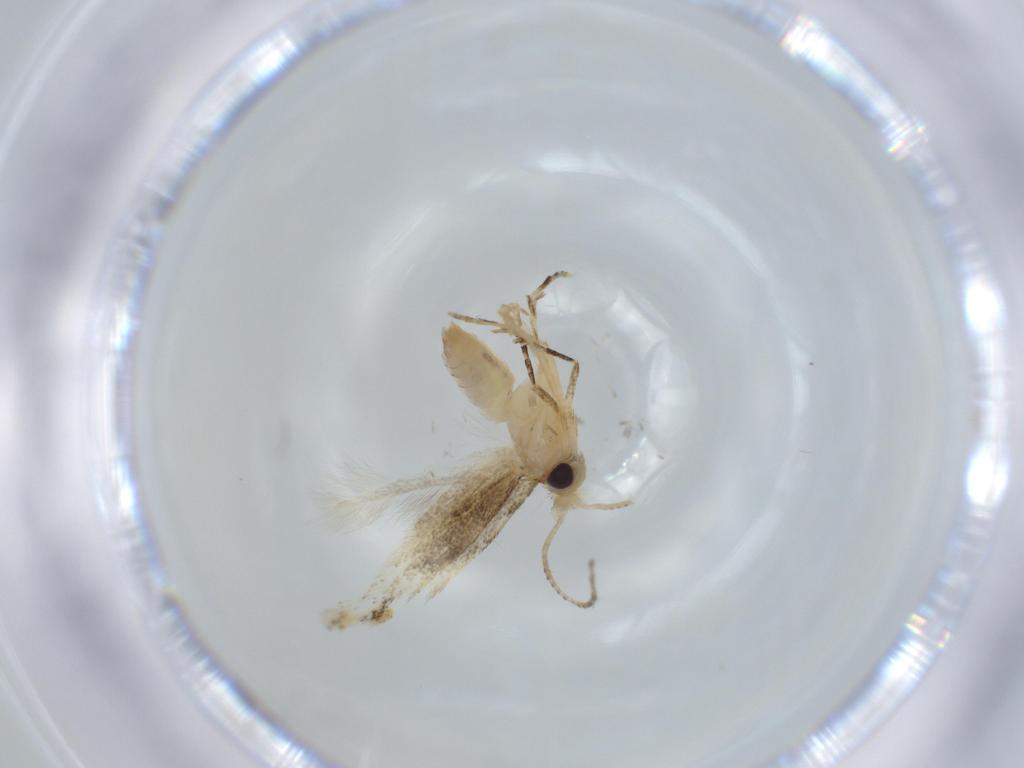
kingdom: Animalia
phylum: Arthropoda
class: Insecta
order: Lepidoptera
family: Bucculatricidae
